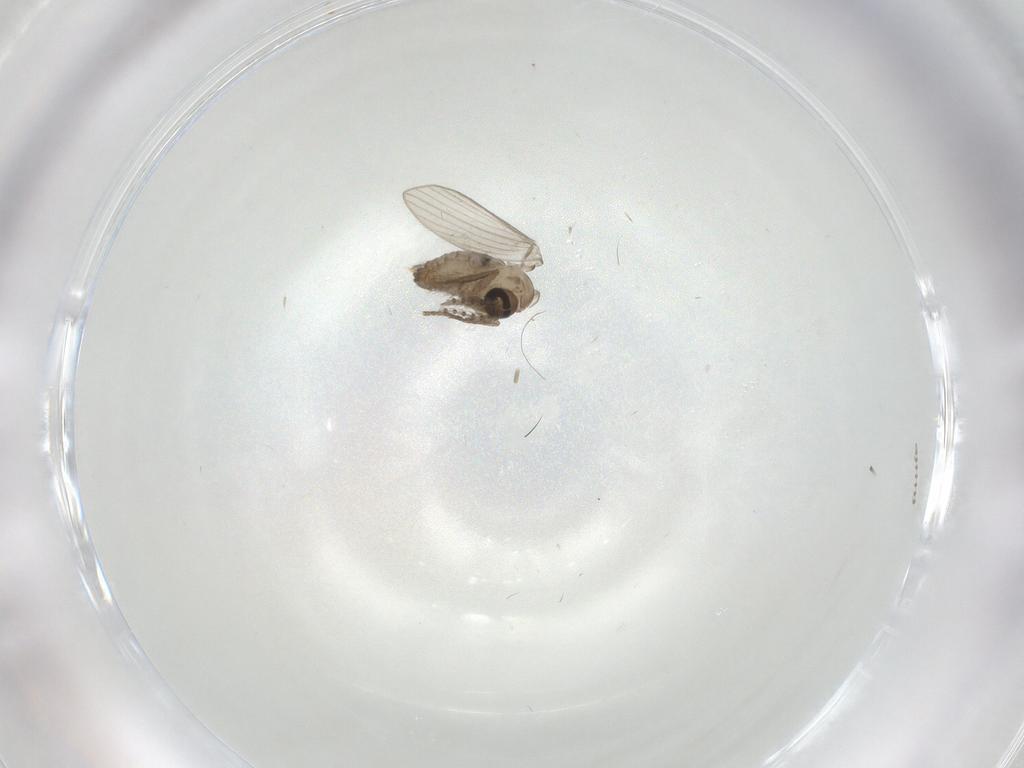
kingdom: Animalia
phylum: Arthropoda
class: Insecta
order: Diptera
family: Psychodidae
